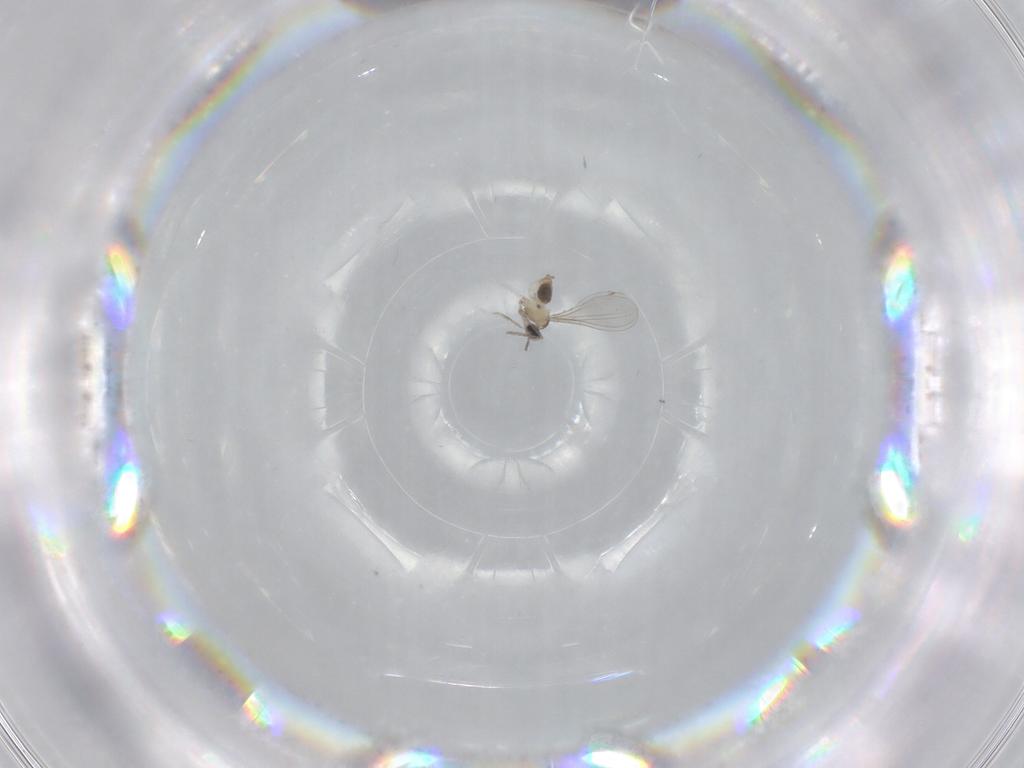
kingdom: Animalia
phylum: Arthropoda
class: Insecta
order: Diptera
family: Cecidomyiidae
